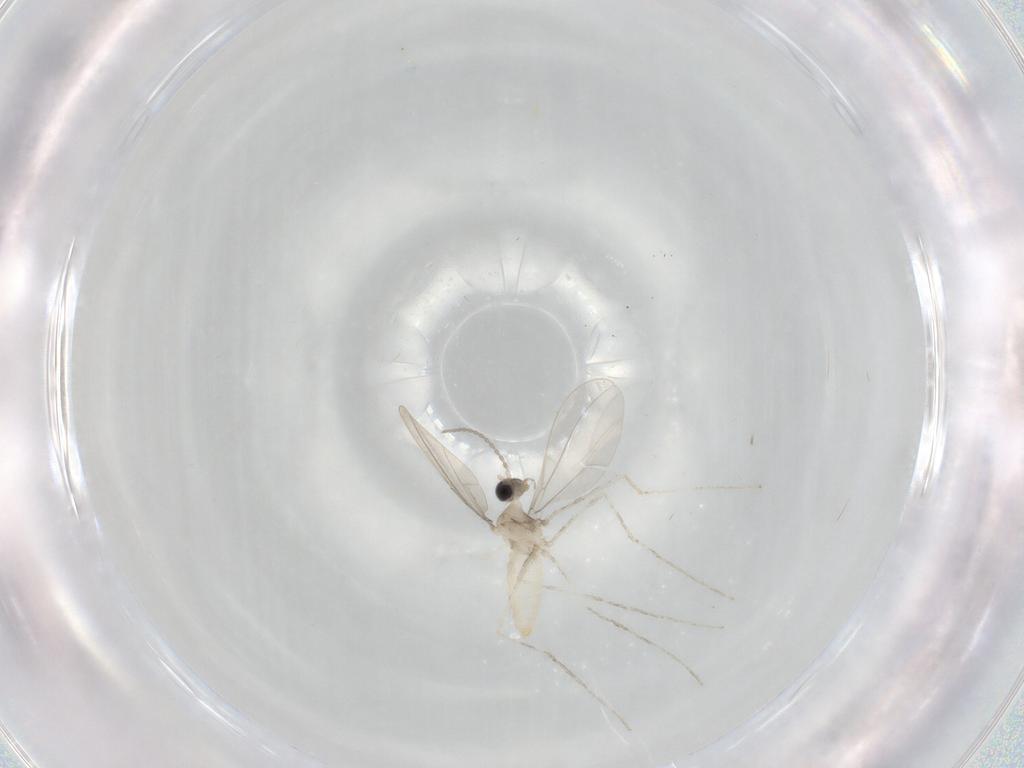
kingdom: Animalia
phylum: Arthropoda
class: Insecta
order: Diptera
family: Cecidomyiidae
